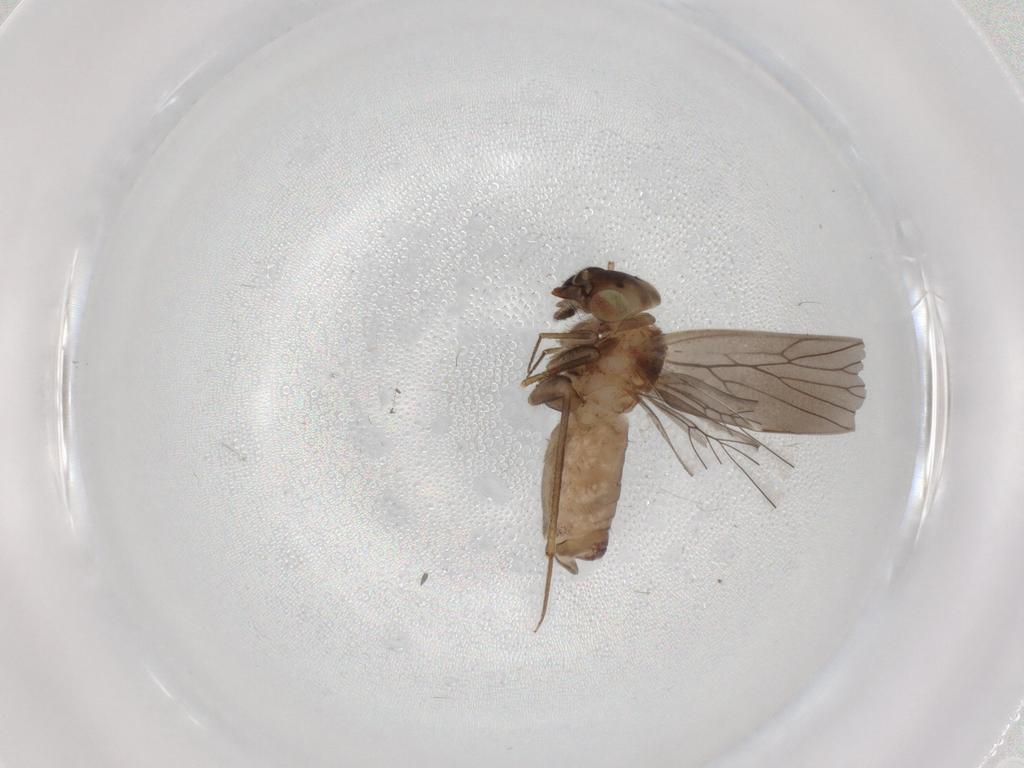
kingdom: Animalia
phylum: Arthropoda
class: Insecta
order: Psocodea
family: Lepidopsocidae
